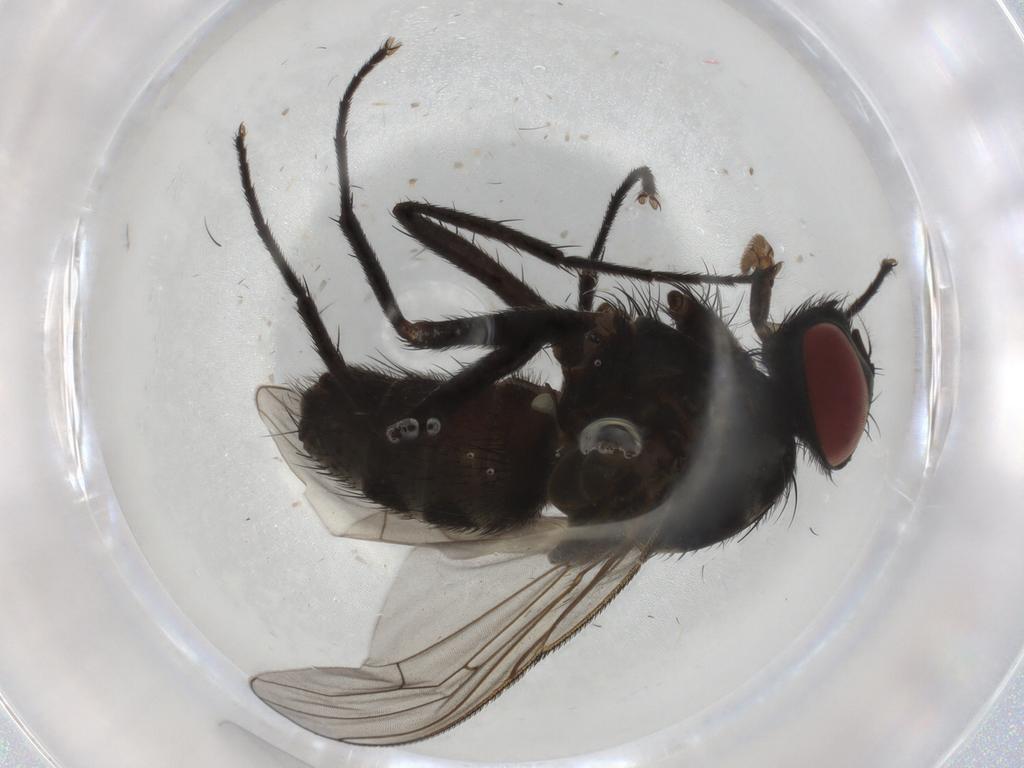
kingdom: Animalia
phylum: Arthropoda
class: Insecta
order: Diptera
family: Muscidae
